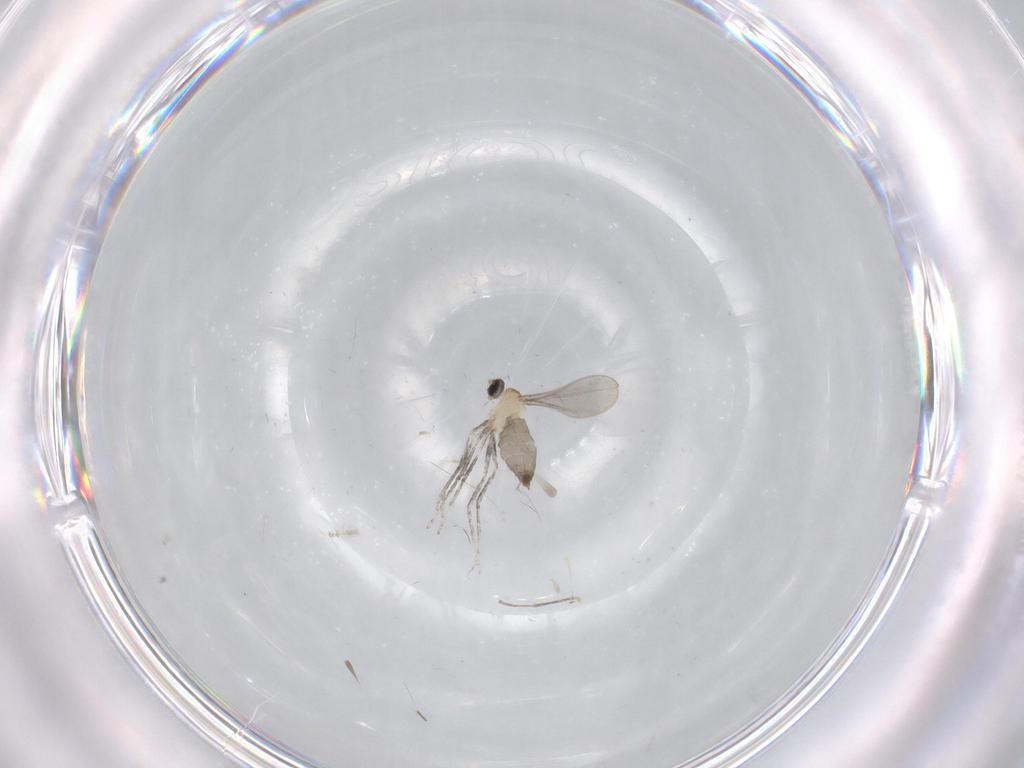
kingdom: Animalia
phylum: Arthropoda
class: Insecta
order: Diptera
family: Cecidomyiidae
